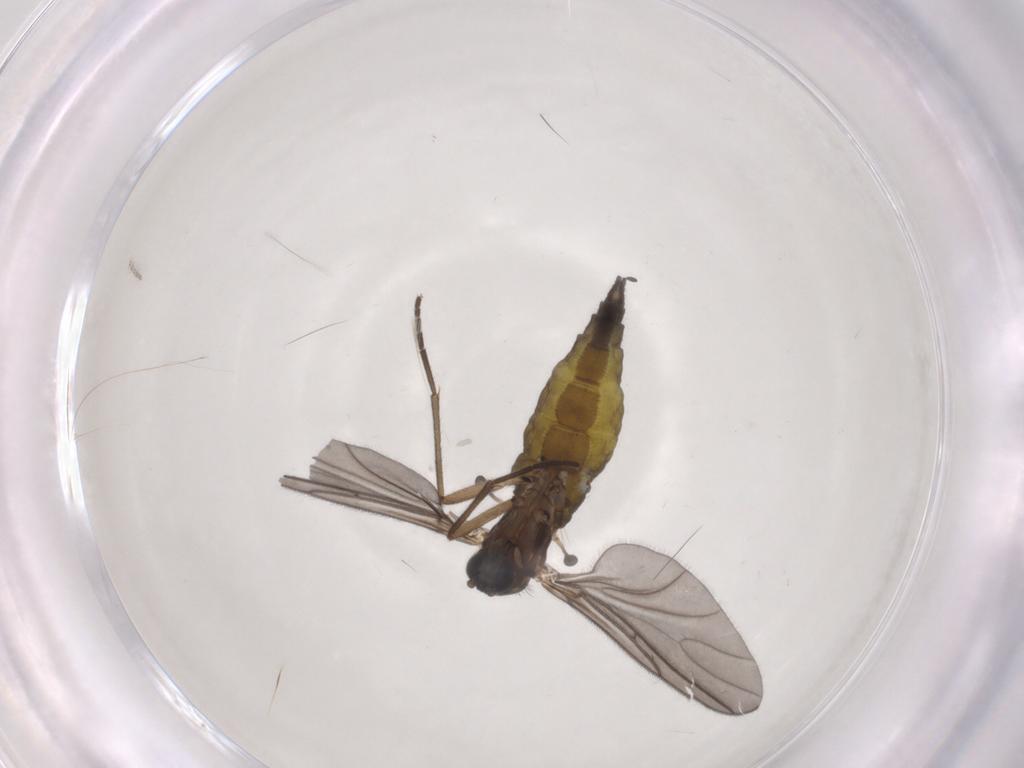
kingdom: Animalia
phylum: Arthropoda
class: Insecta
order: Diptera
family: Sciaridae
